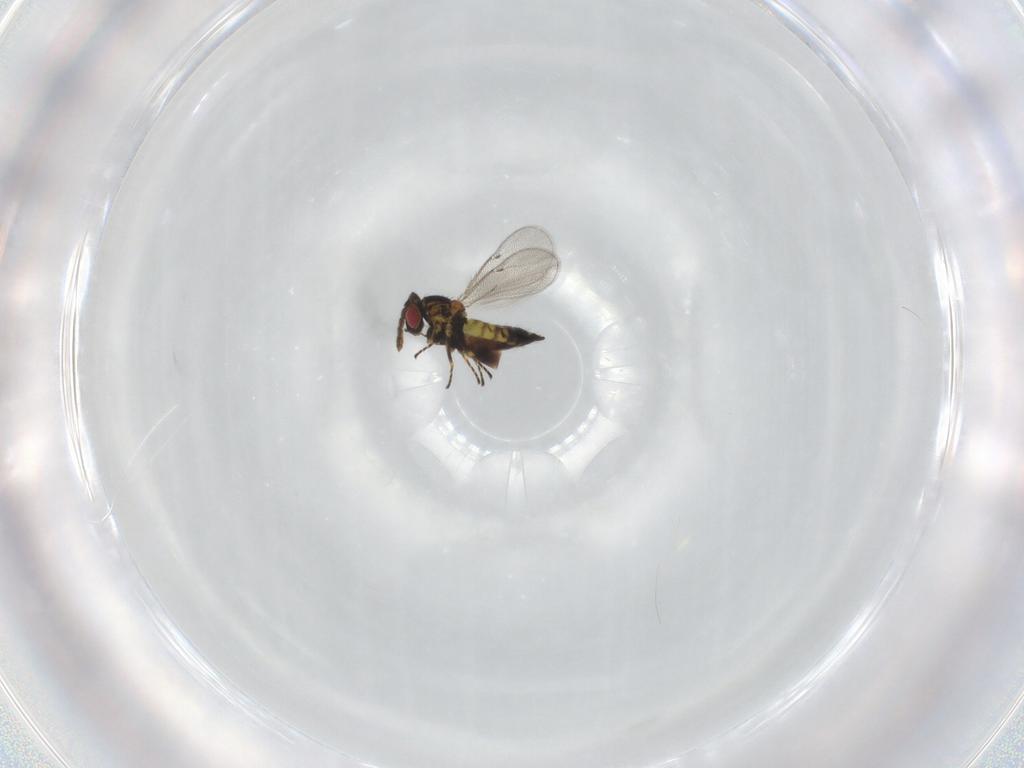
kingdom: Animalia
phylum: Arthropoda
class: Insecta
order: Hymenoptera
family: Eulophidae
